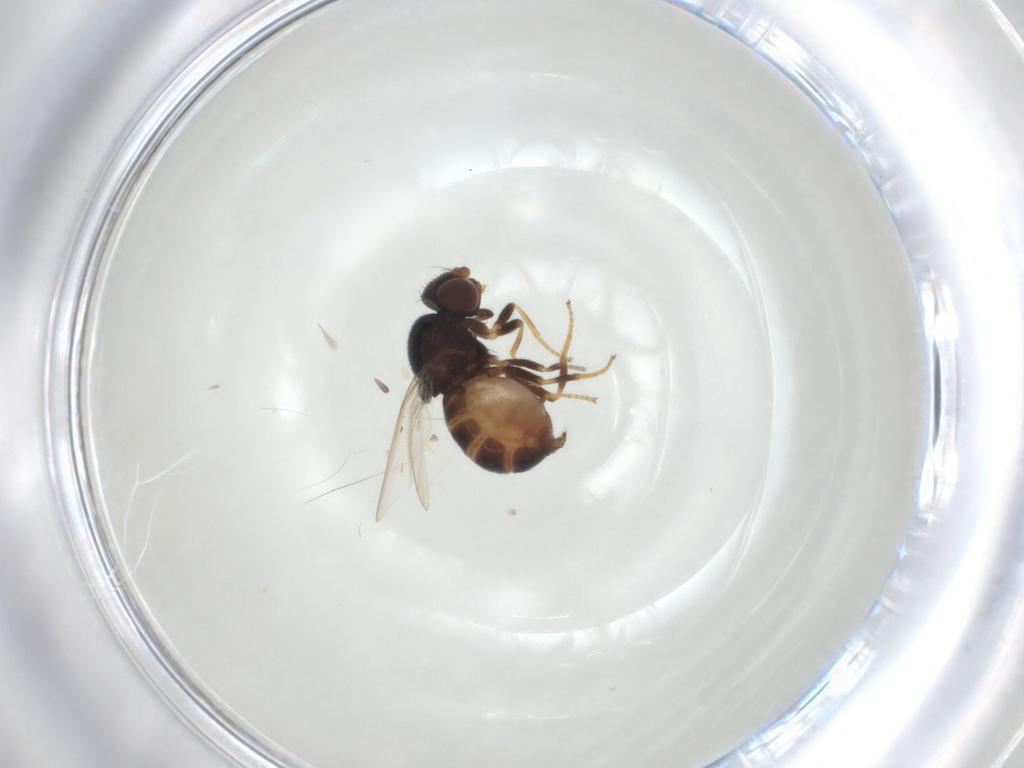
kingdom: Animalia
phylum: Arthropoda
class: Insecta
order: Diptera
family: Chloropidae
